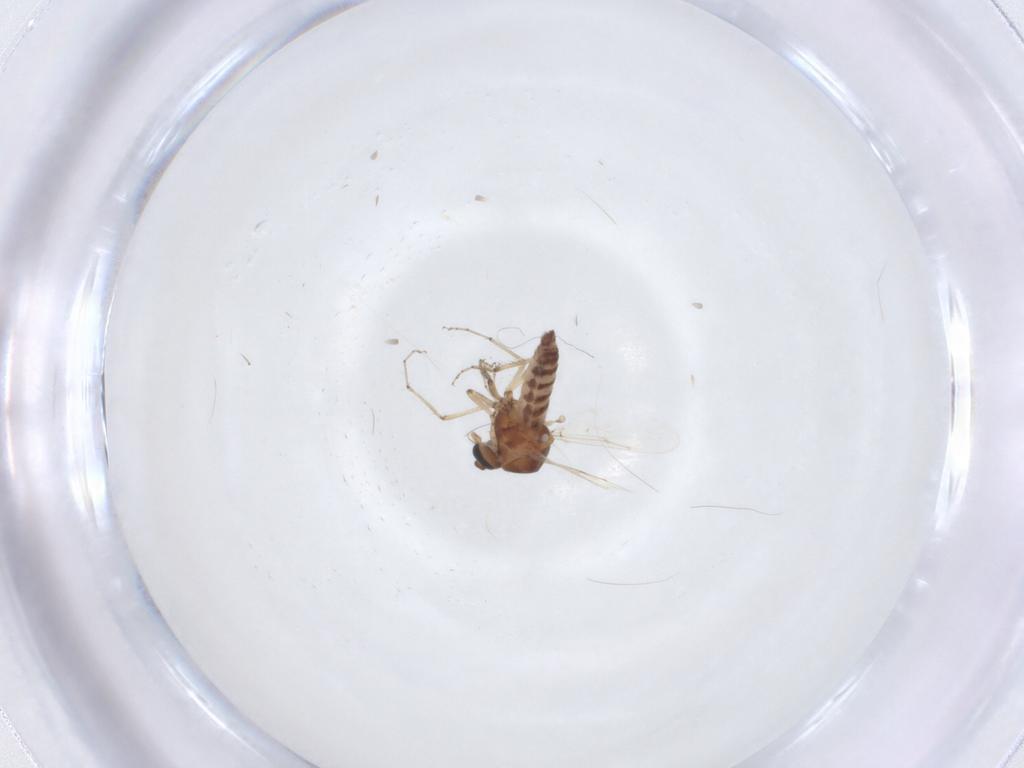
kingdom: Animalia
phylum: Arthropoda
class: Insecta
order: Diptera
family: Ceratopogonidae
